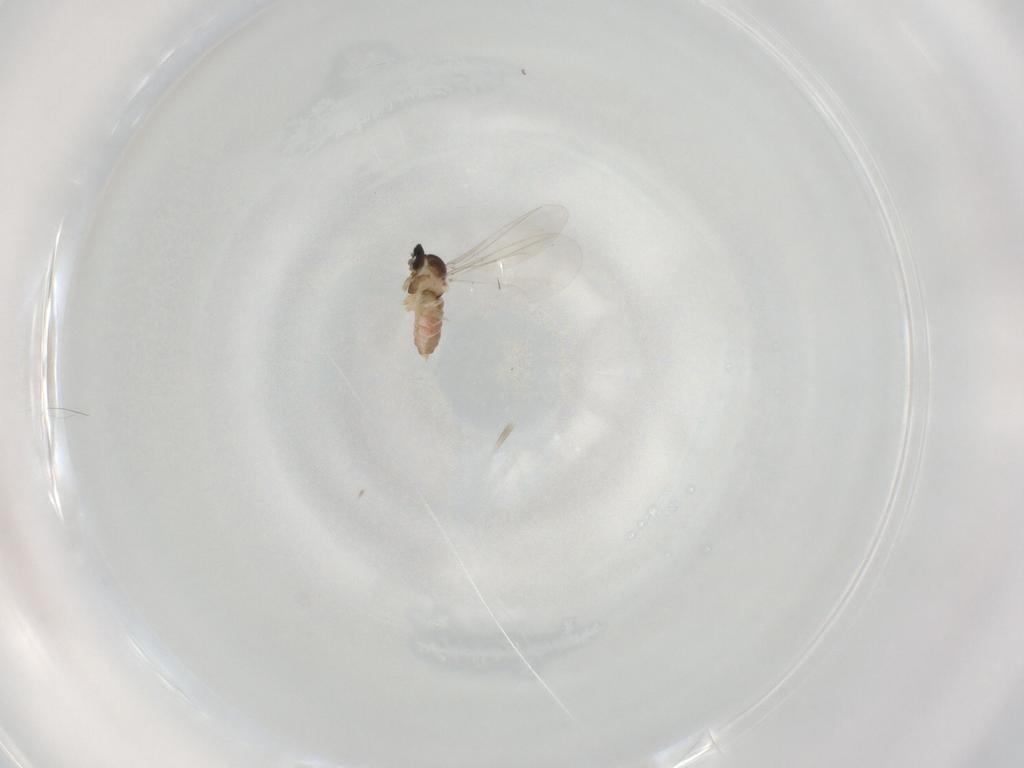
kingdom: Animalia
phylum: Arthropoda
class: Insecta
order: Diptera
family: Cecidomyiidae
